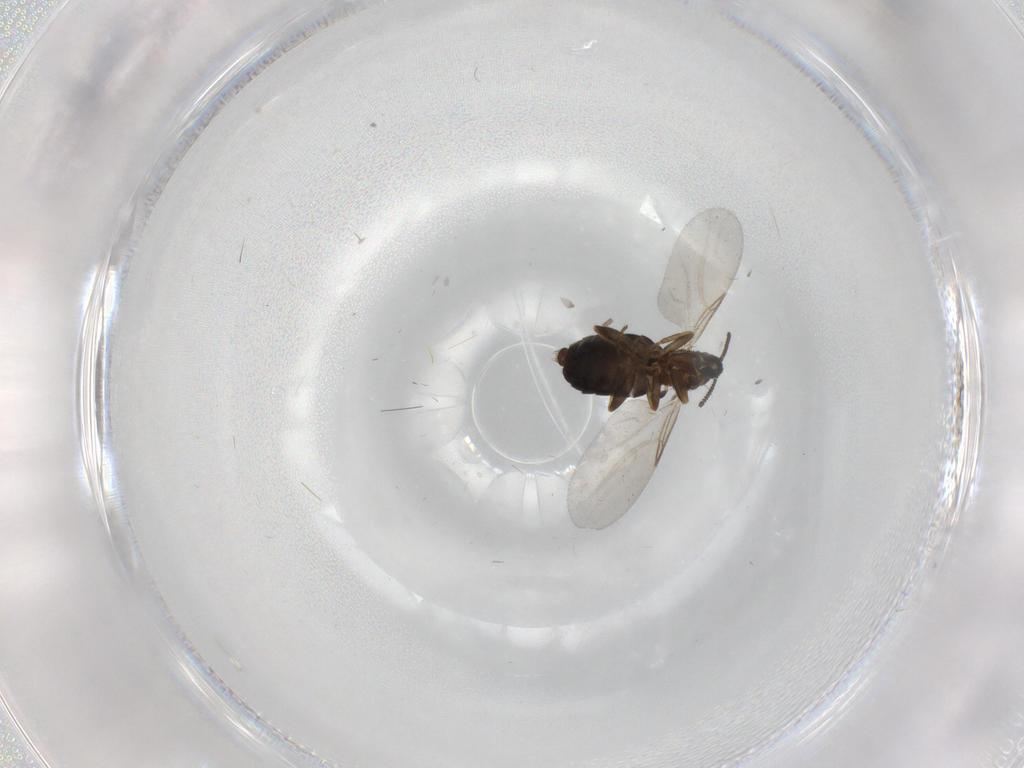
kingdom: Animalia
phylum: Arthropoda
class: Insecta
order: Diptera
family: Scatopsidae
